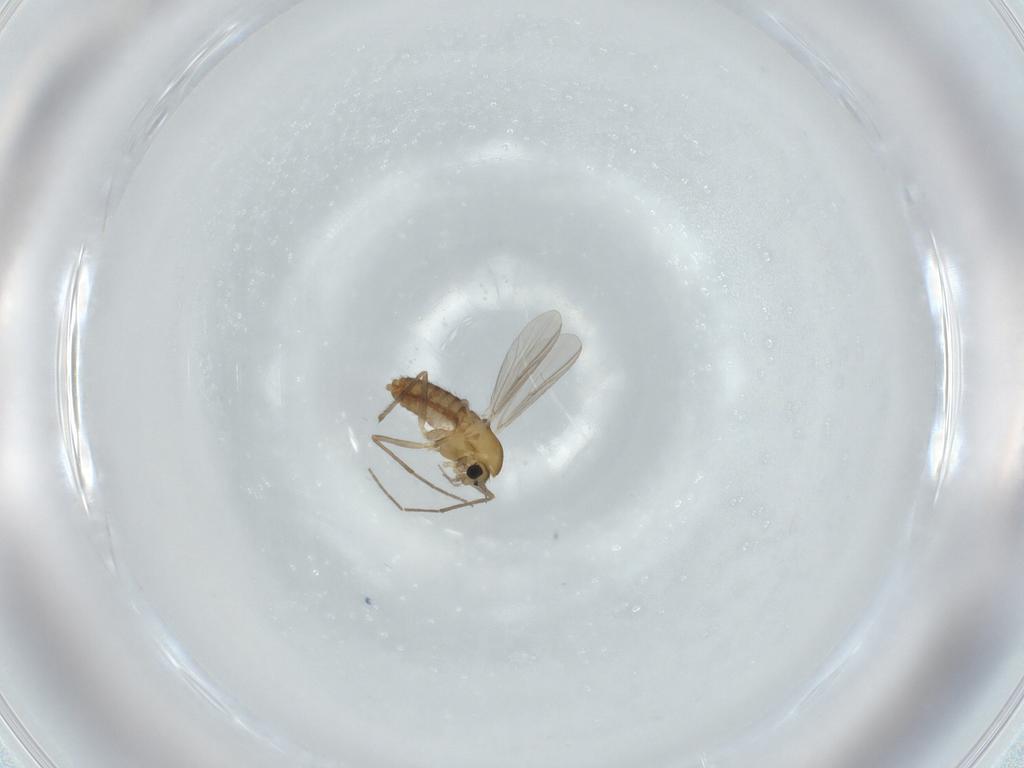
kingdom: Animalia
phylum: Arthropoda
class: Insecta
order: Diptera
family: Chironomidae
